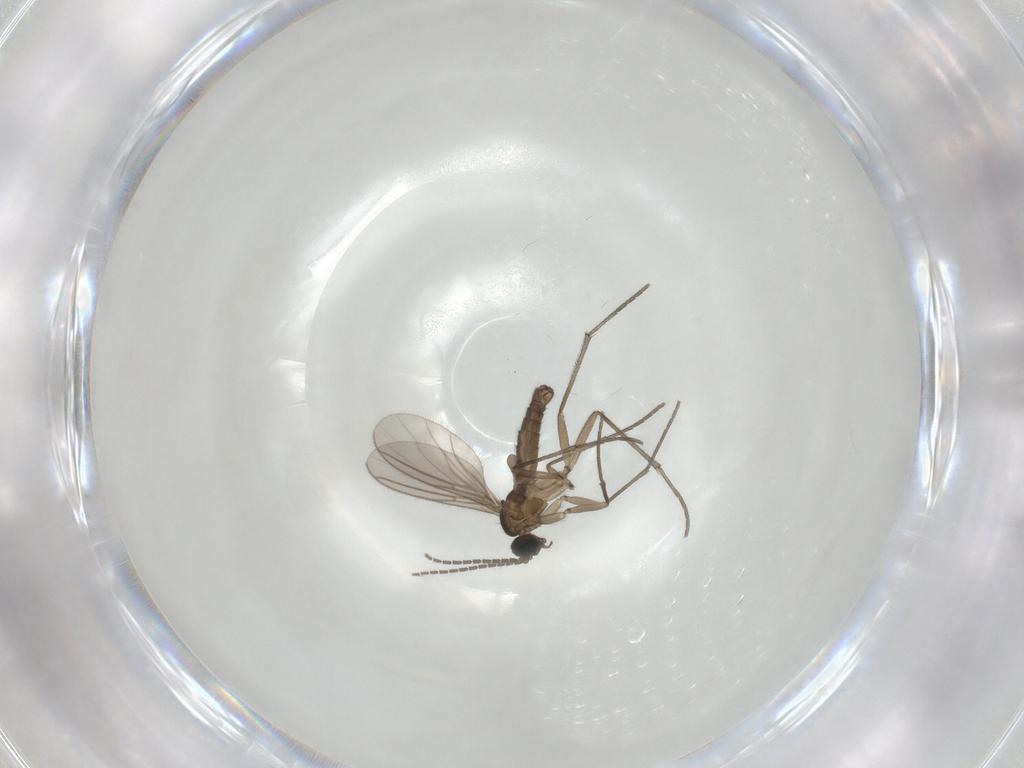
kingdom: Animalia
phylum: Arthropoda
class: Insecta
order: Diptera
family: Sciaridae
